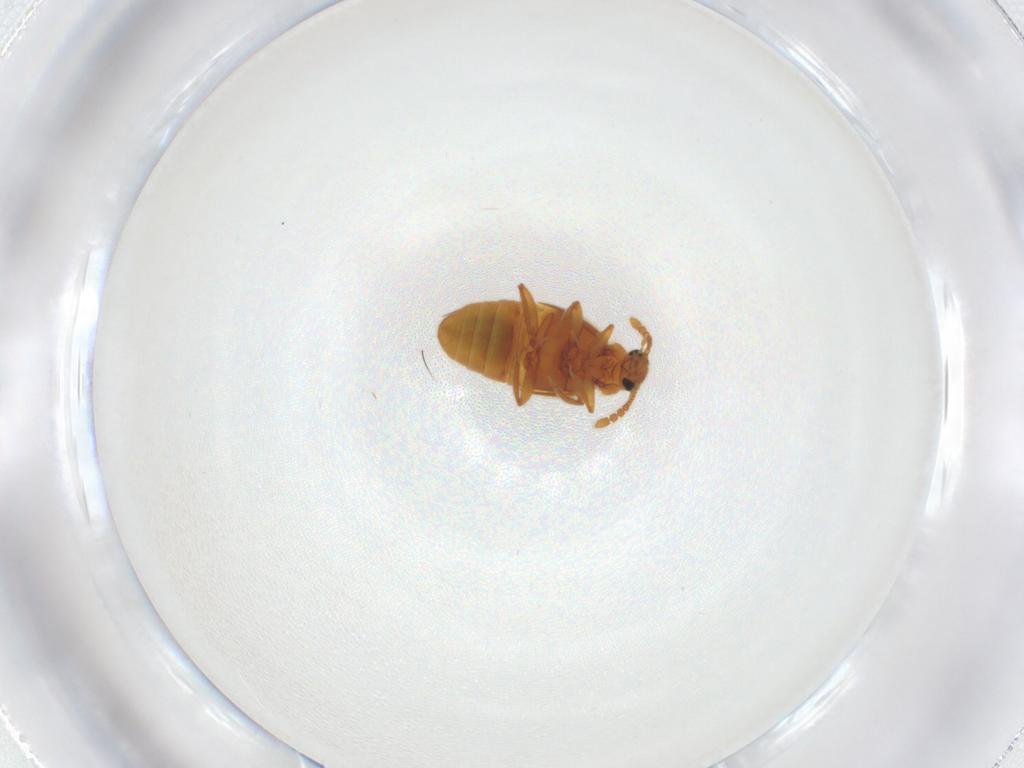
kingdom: Animalia
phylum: Arthropoda
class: Insecta
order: Coleoptera
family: Staphylinidae
